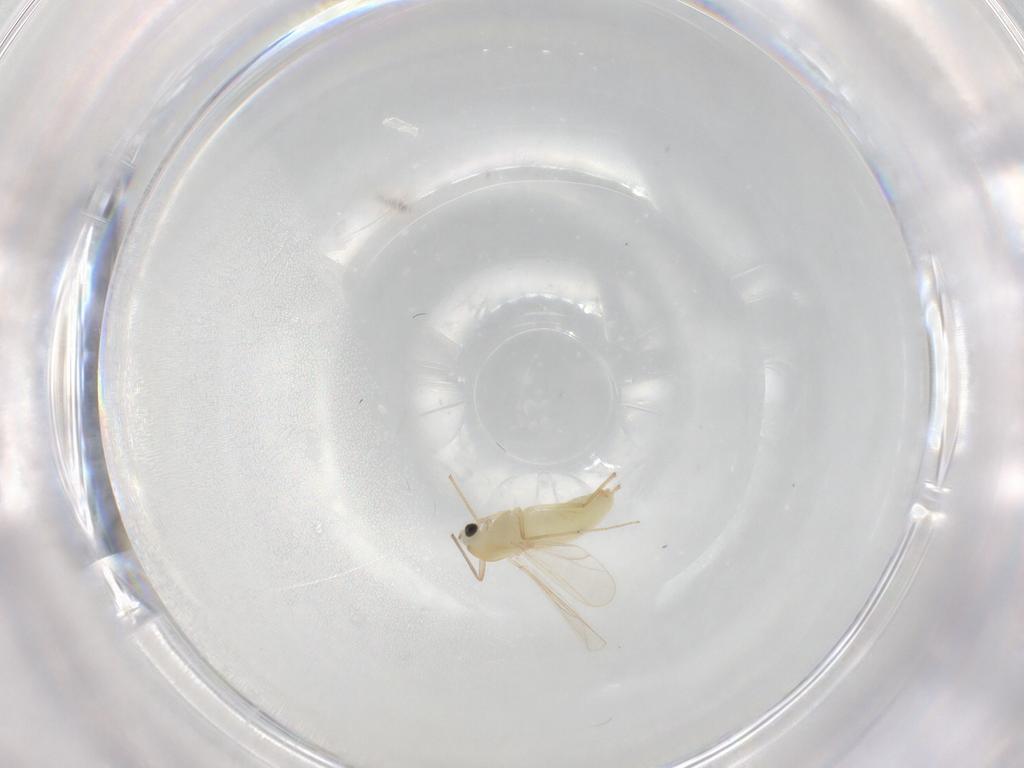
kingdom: Animalia
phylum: Arthropoda
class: Insecta
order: Diptera
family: Chironomidae
